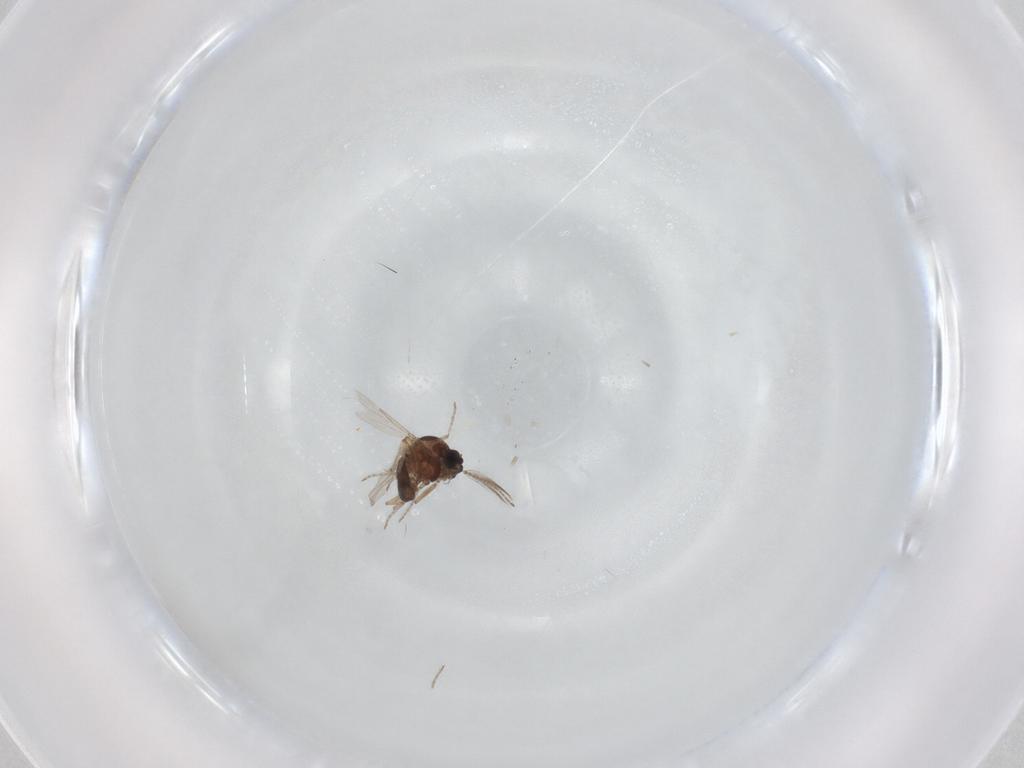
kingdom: Animalia
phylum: Arthropoda
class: Insecta
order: Diptera
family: Ceratopogonidae
